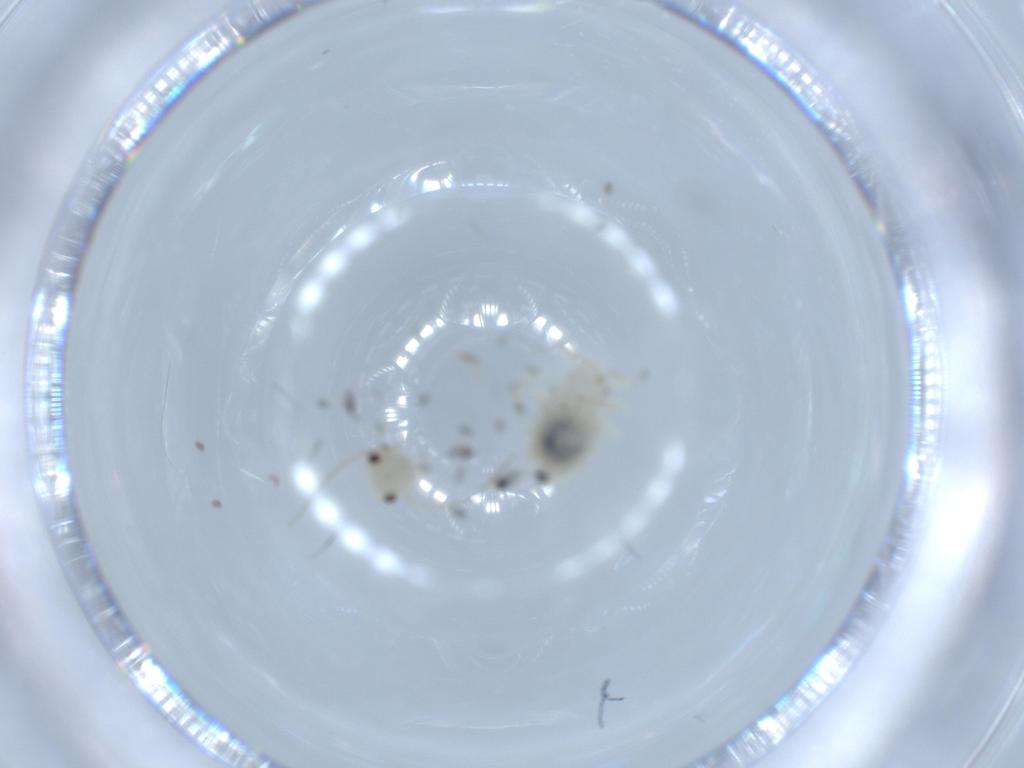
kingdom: Animalia
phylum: Arthropoda
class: Insecta
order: Psocodea
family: Caeciliusidae
